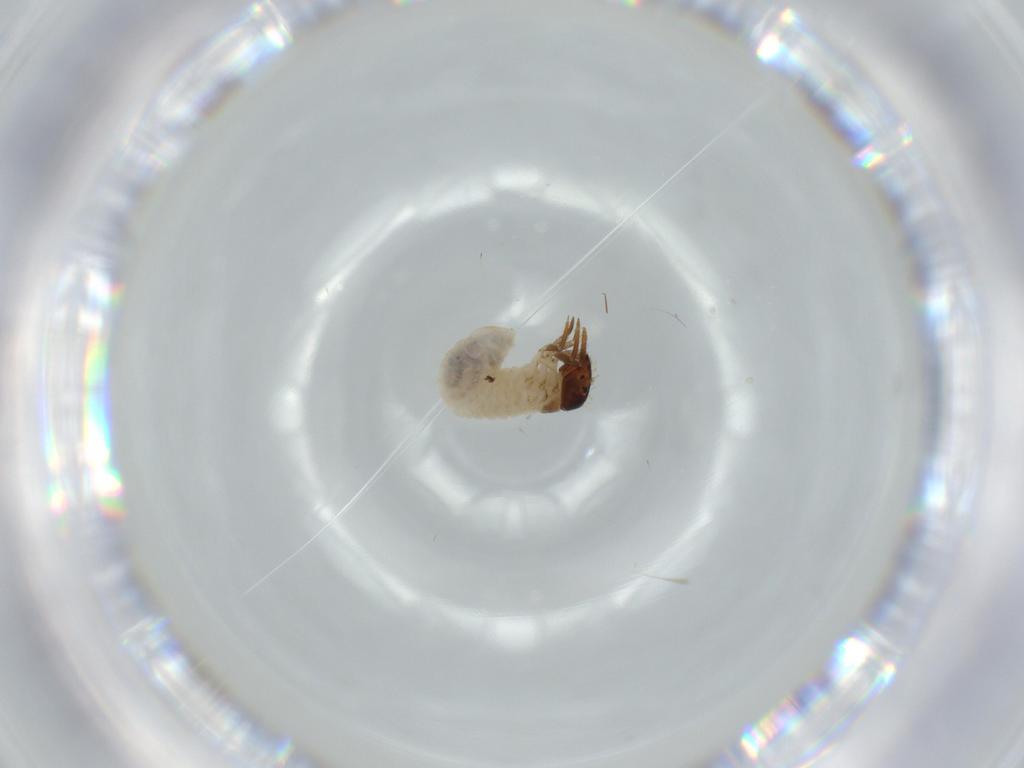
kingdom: Animalia
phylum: Arthropoda
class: Insecta
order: Coleoptera
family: Chrysomelidae
